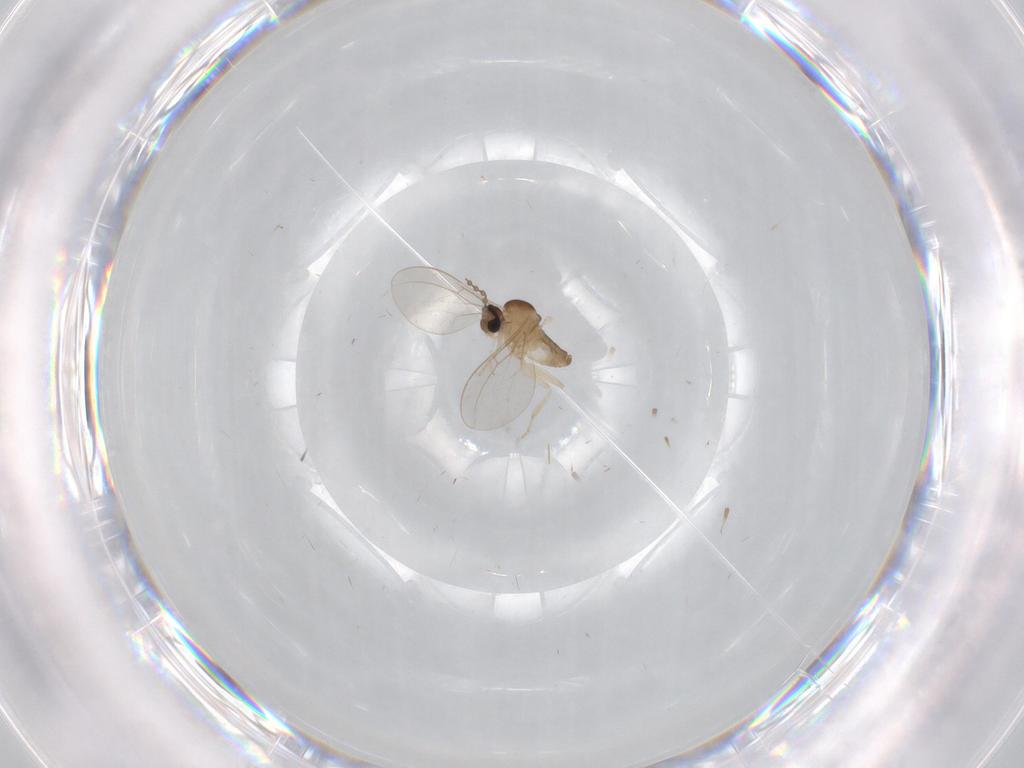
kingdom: Animalia
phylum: Arthropoda
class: Insecta
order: Diptera
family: Cecidomyiidae
